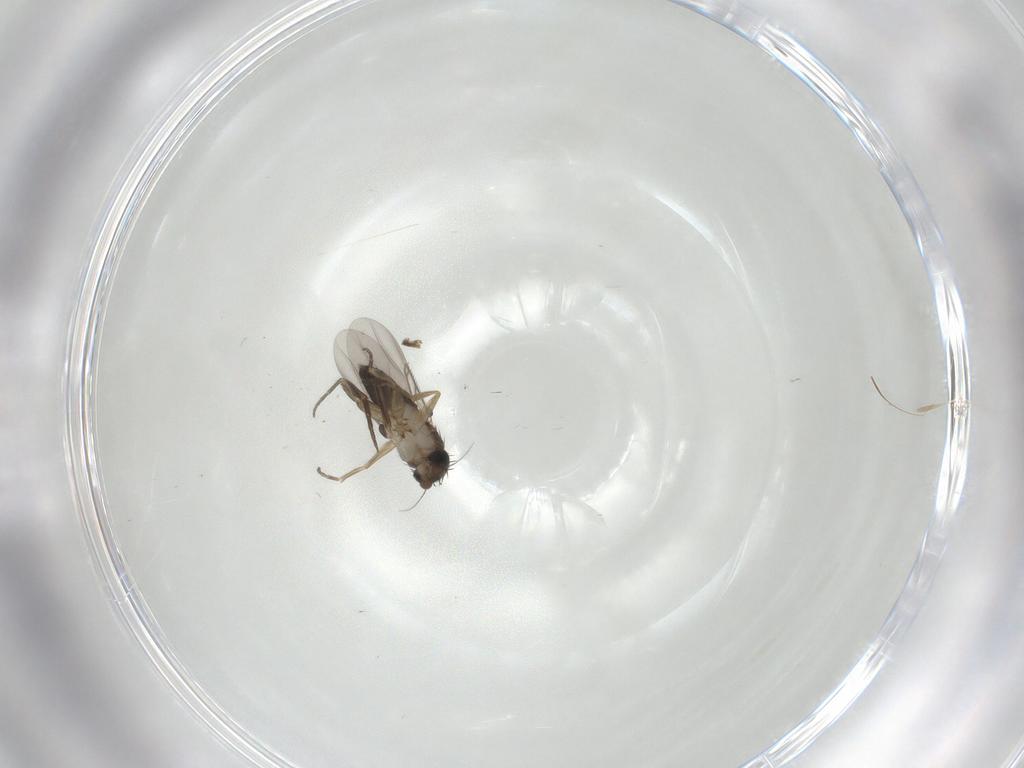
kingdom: Animalia
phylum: Arthropoda
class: Insecta
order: Diptera
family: Phoridae
